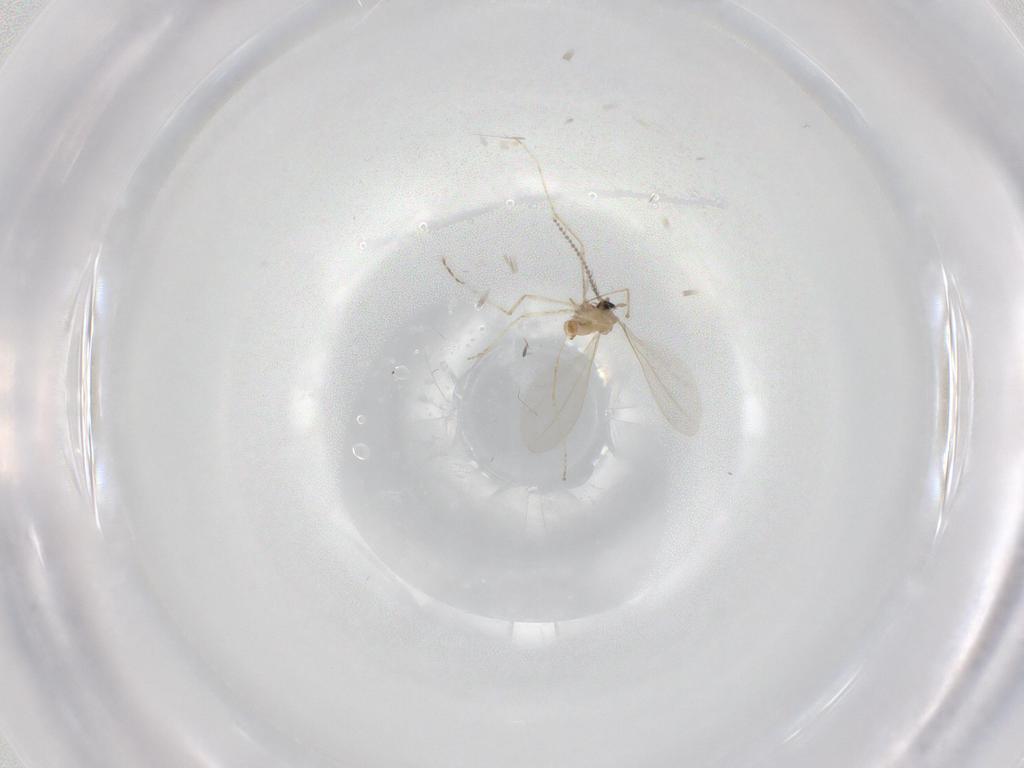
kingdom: Animalia
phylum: Arthropoda
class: Insecta
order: Diptera
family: Cecidomyiidae
